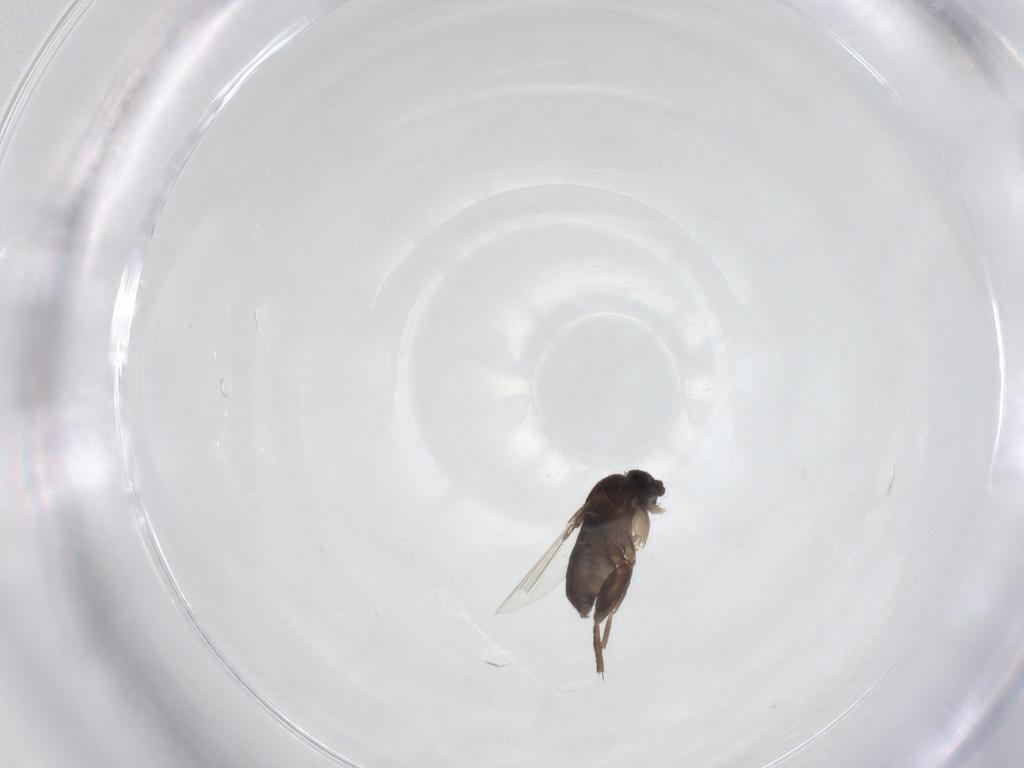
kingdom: Animalia
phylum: Arthropoda
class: Insecta
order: Diptera
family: Phoridae
